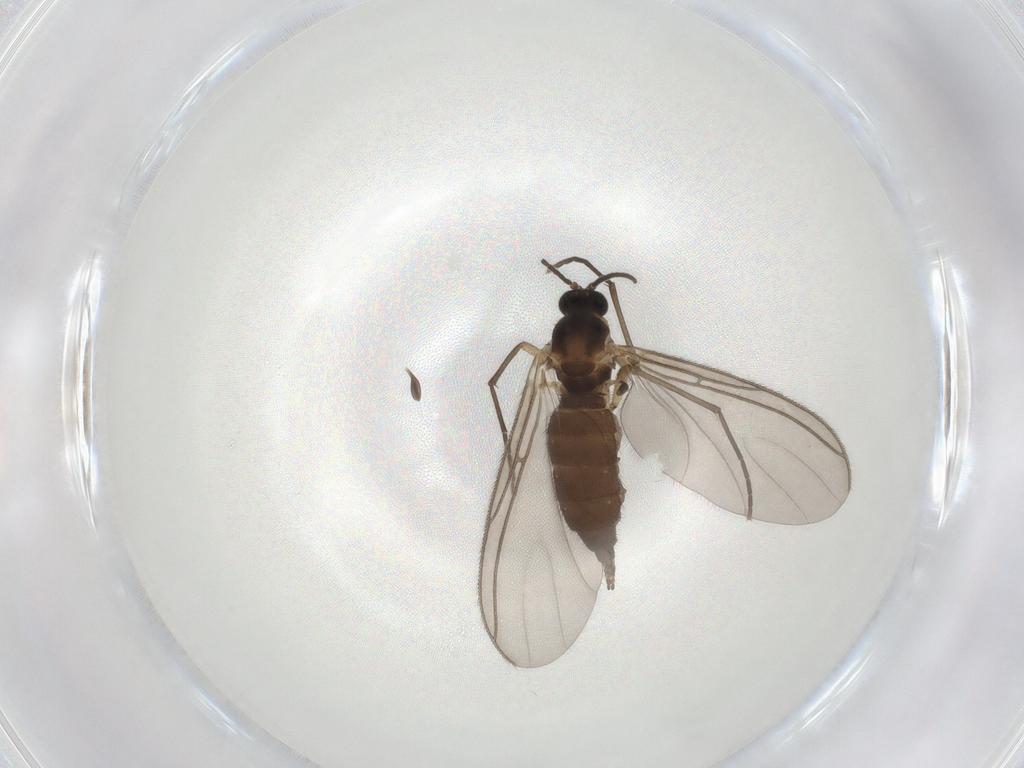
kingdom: Animalia
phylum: Arthropoda
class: Insecta
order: Diptera
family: Sciaridae
